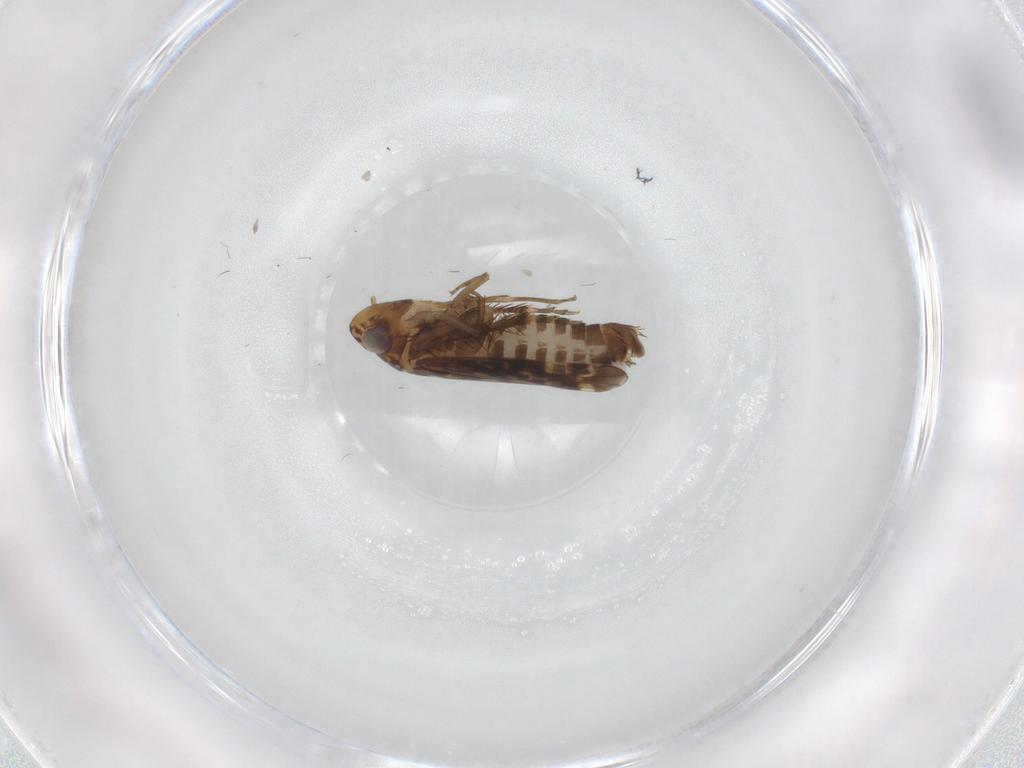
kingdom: Animalia
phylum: Arthropoda
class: Insecta
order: Hemiptera
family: Cicadellidae
